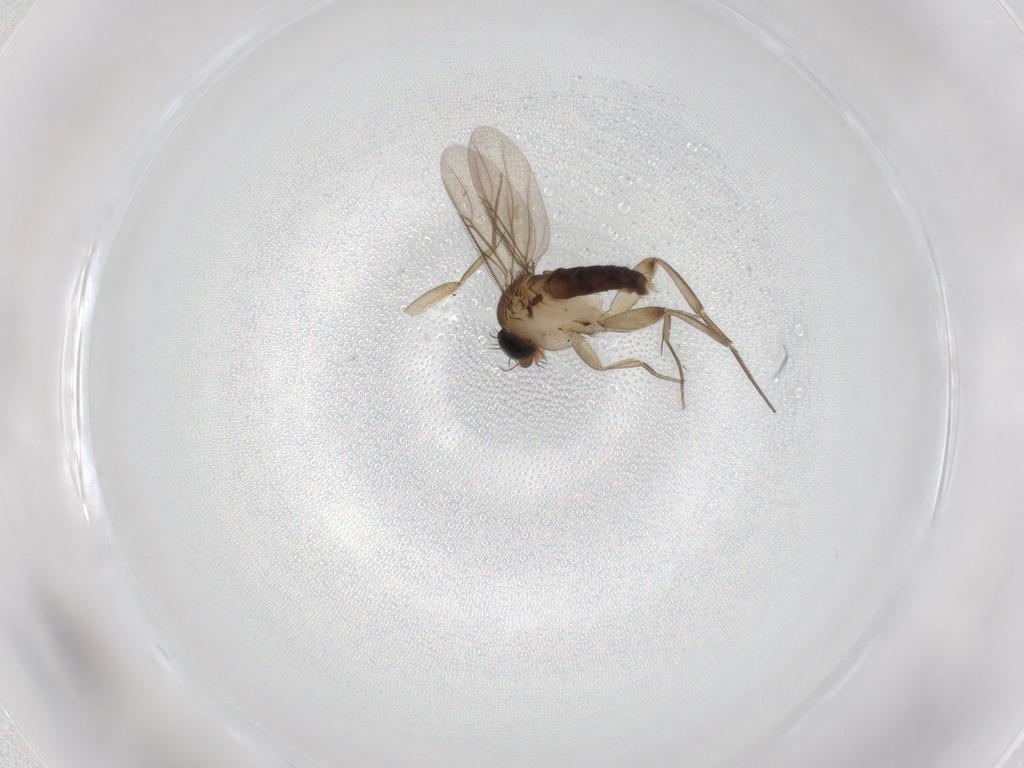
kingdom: Animalia
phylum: Arthropoda
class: Insecta
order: Diptera
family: Phoridae
